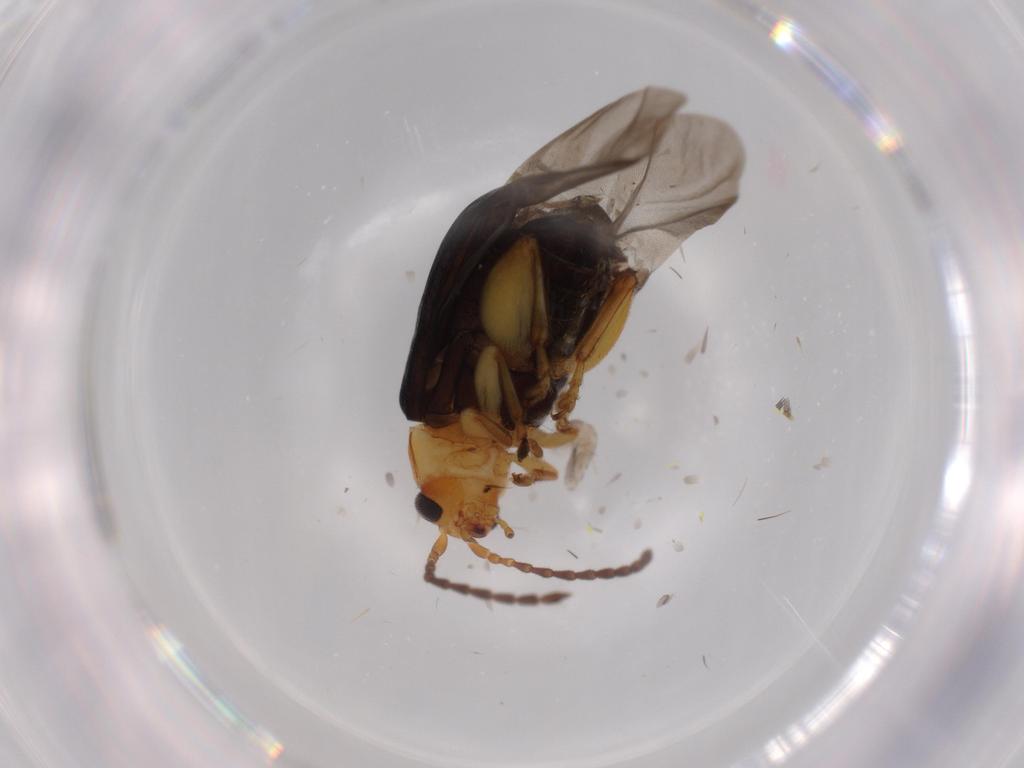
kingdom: Animalia
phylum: Arthropoda
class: Insecta
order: Coleoptera
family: Chrysomelidae
